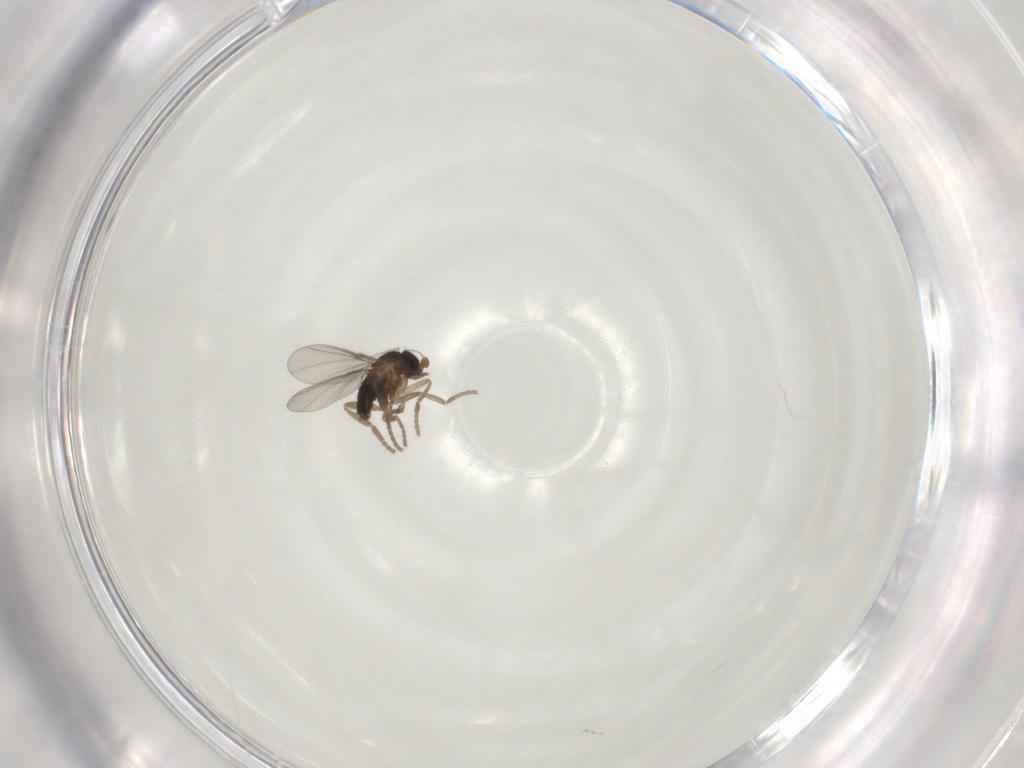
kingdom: Animalia
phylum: Arthropoda
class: Insecta
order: Diptera
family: Cecidomyiidae
